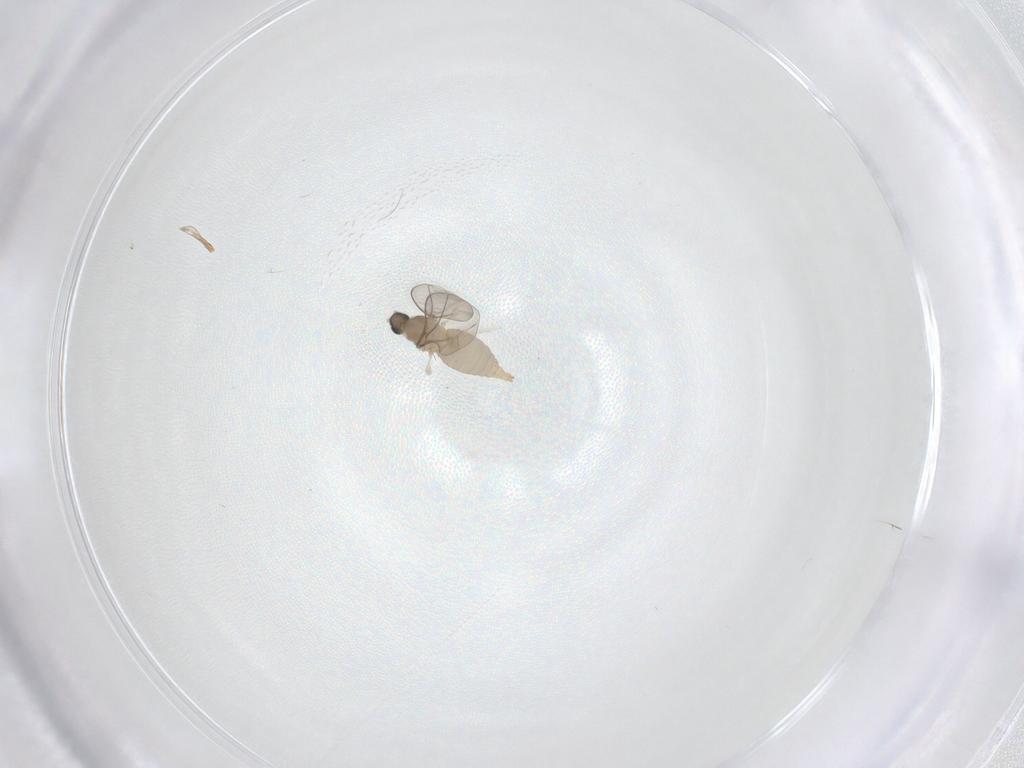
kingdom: Animalia
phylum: Arthropoda
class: Insecta
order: Diptera
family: Cecidomyiidae
